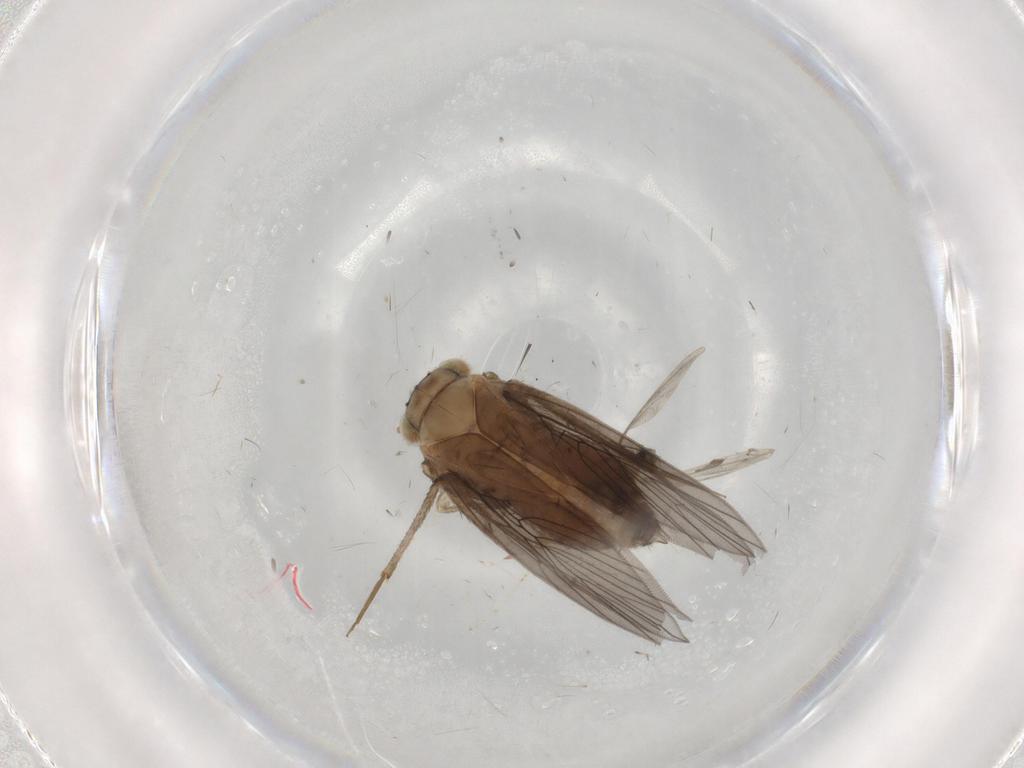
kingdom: Animalia
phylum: Arthropoda
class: Insecta
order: Psocodea
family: Lepidopsocidae
